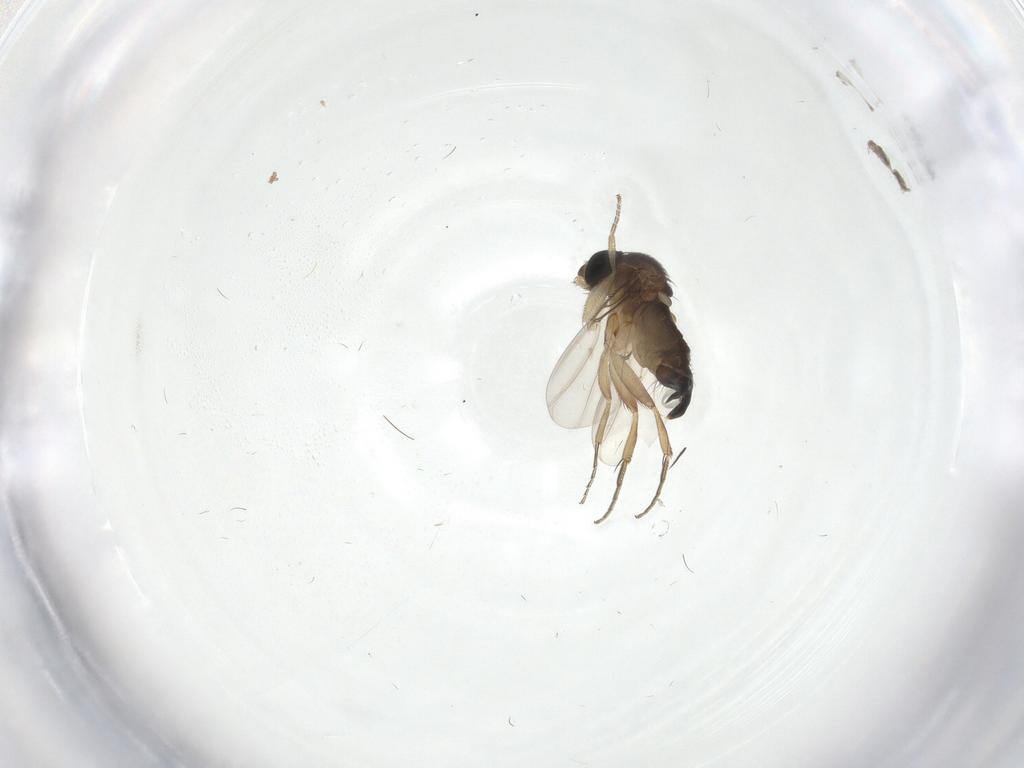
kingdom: Animalia
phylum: Arthropoda
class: Insecta
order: Diptera
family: Phoridae
